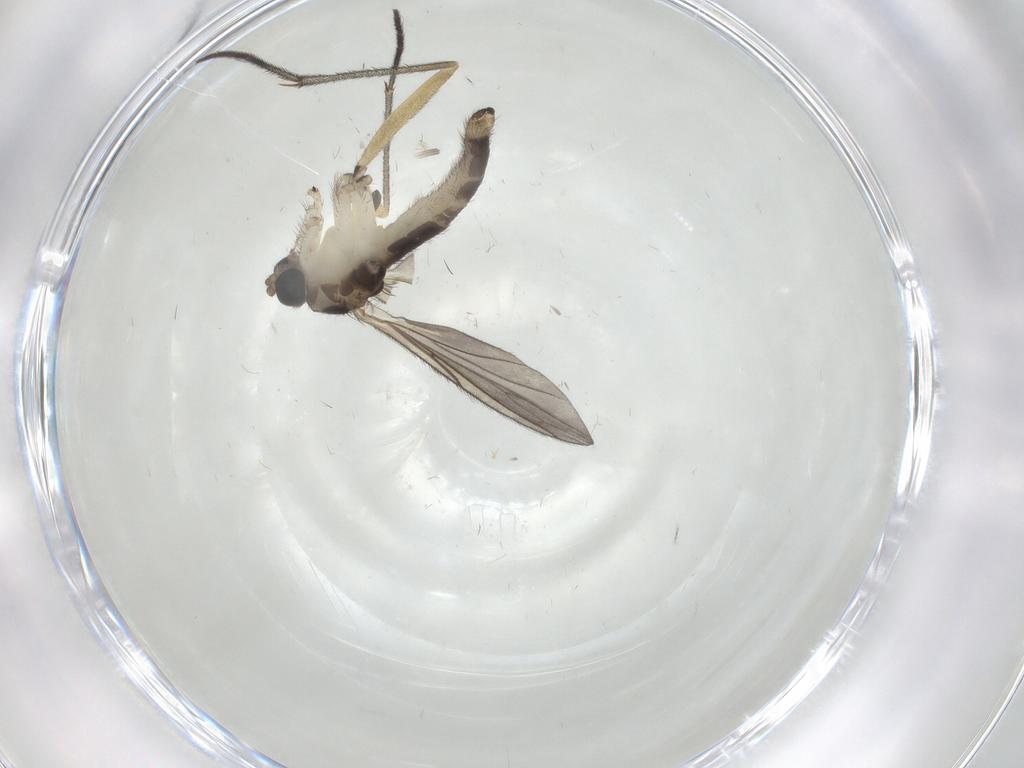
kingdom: Animalia
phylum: Arthropoda
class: Insecta
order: Diptera
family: Sciaridae
